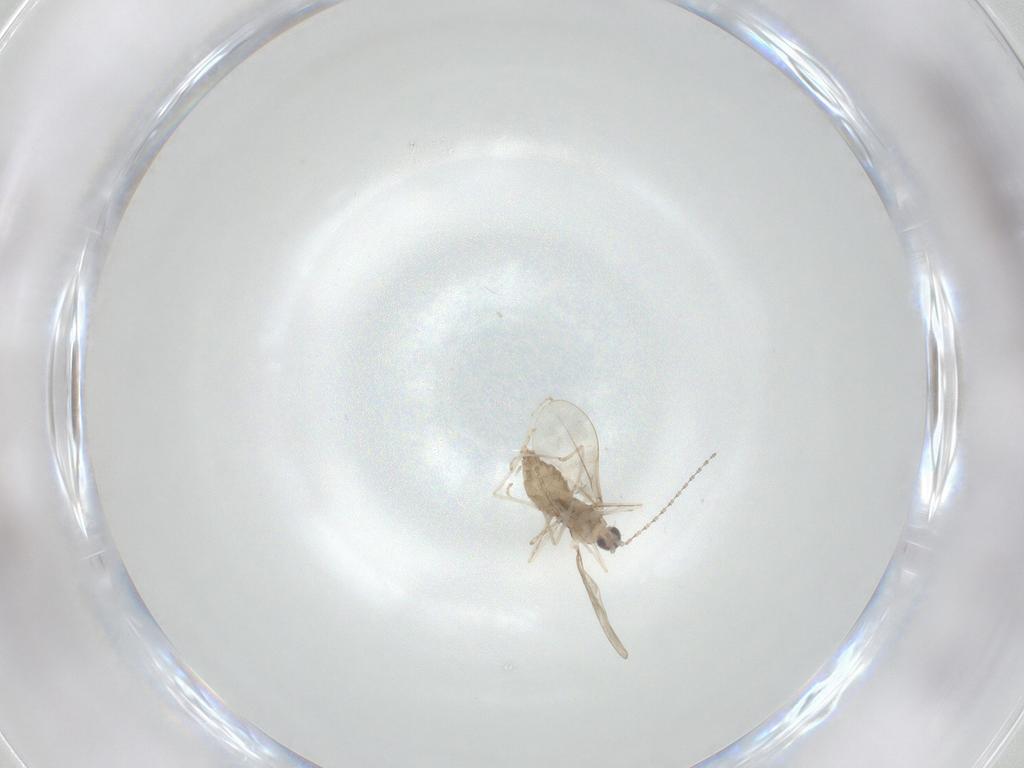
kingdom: Animalia
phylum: Arthropoda
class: Insecta
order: Diptera
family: Cecidomyiidae
